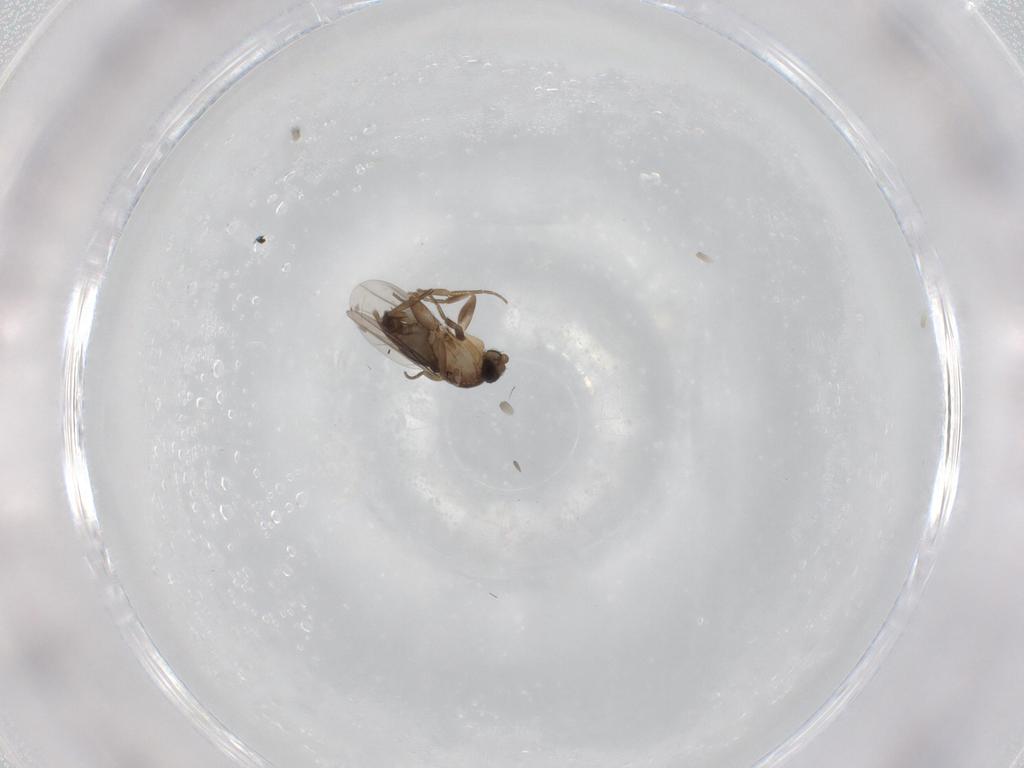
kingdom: Animalia
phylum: Arthropoda
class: Insecta
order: Diptera
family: Phoridae
